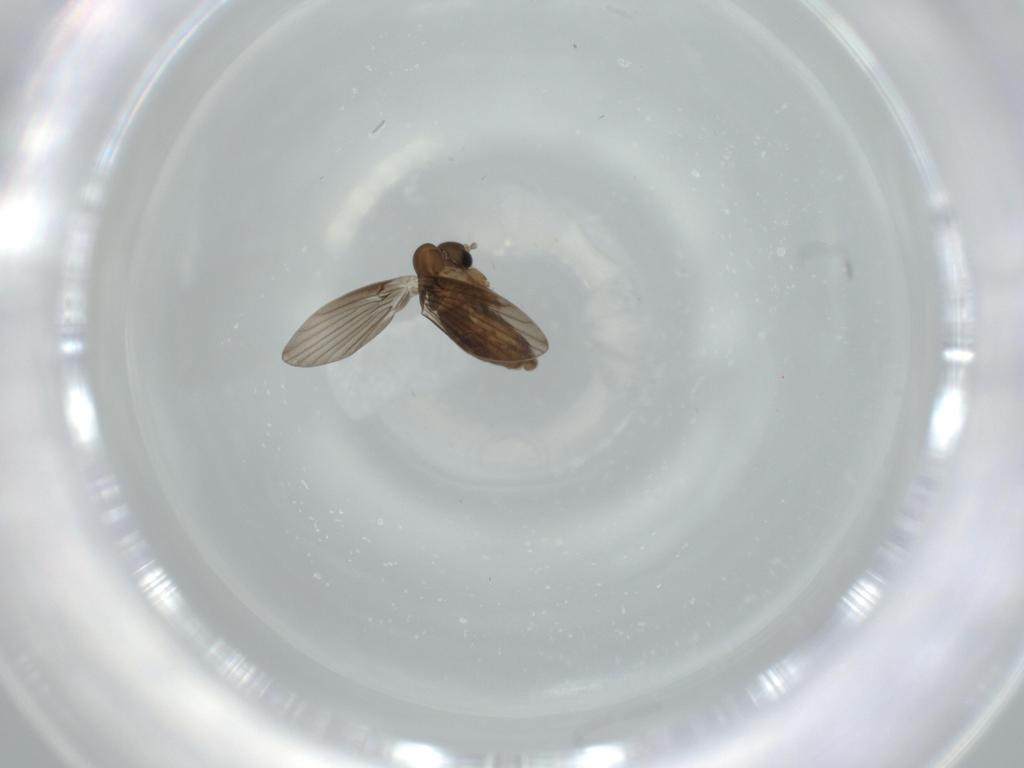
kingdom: Animalia
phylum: Arthropoda
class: Insecta
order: Diptera
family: Psychodidae
